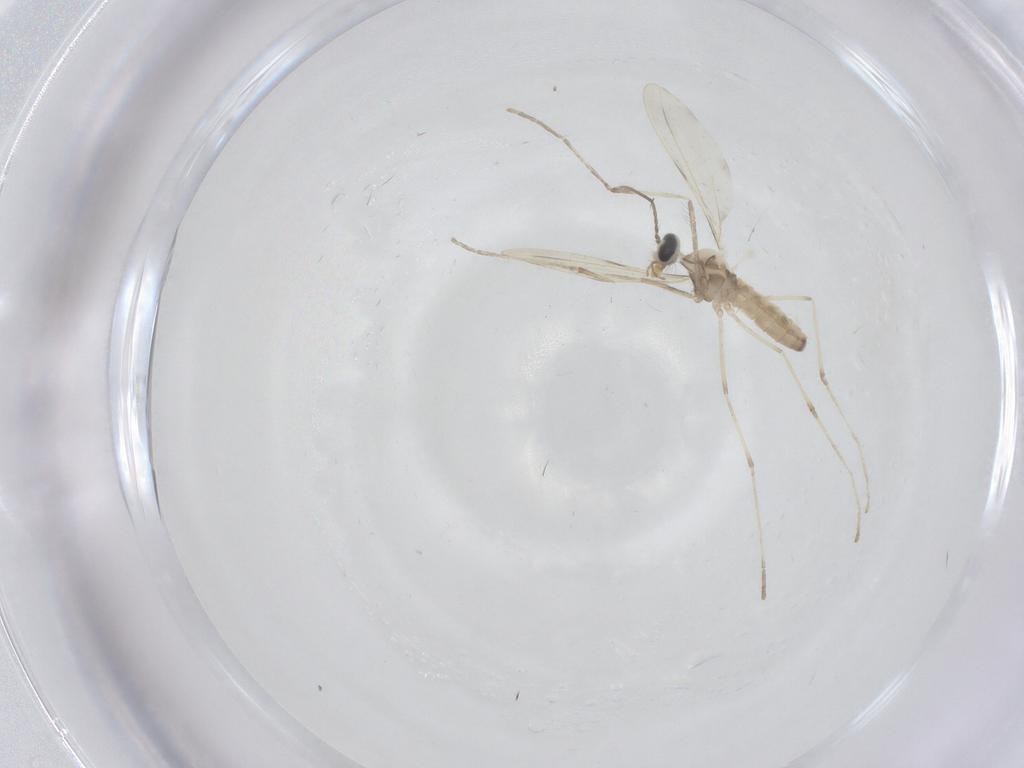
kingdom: Animalia
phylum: Arthropoda
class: Insecta
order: Diptera
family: Cecidomyiidae
